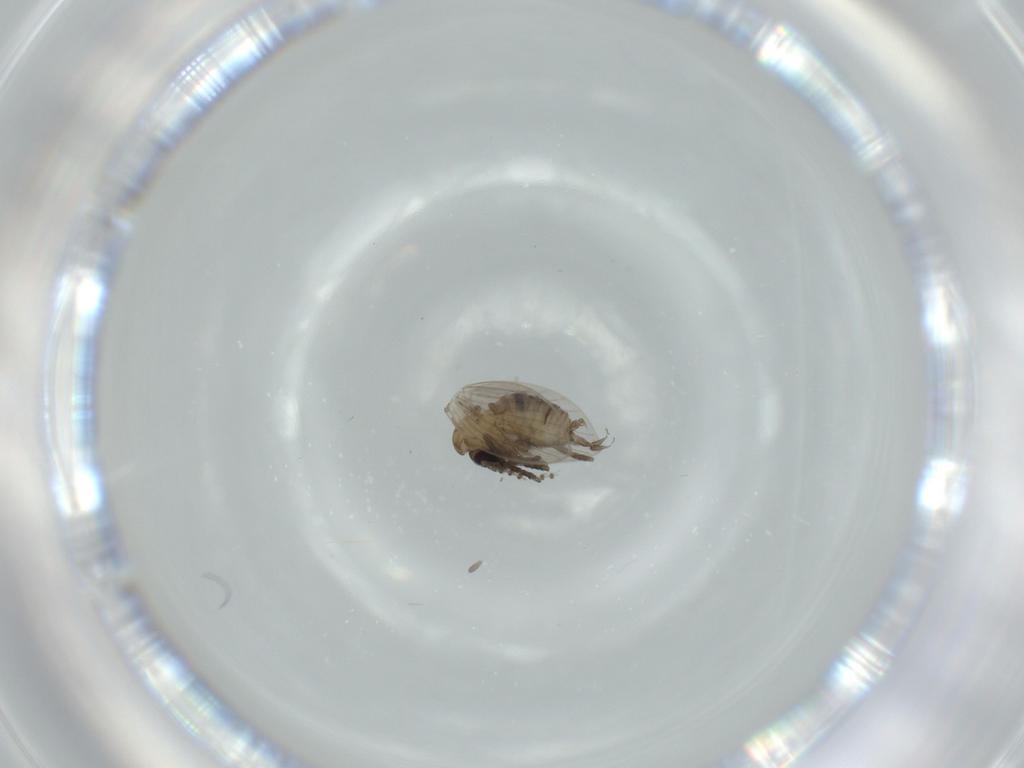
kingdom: Animalia
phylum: Arthropoda
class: Insecta
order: Diptera
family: Psychodidae
